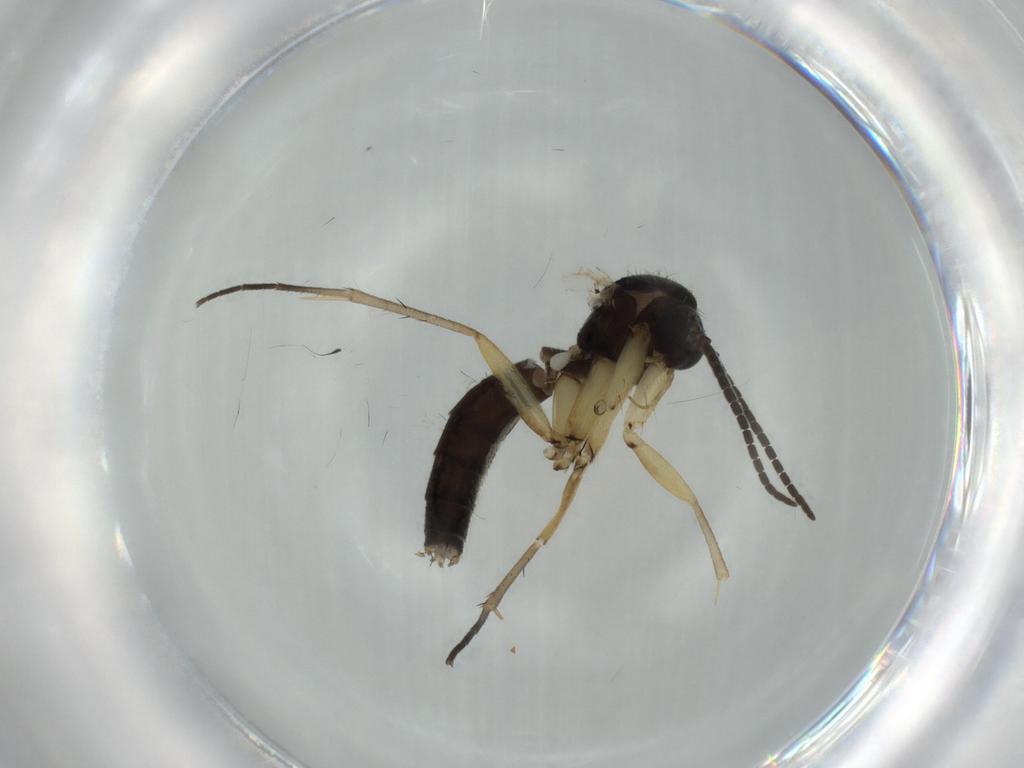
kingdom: Animalia
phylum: Arthropoda
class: Insecta
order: Diptera
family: Mycetophilidae
